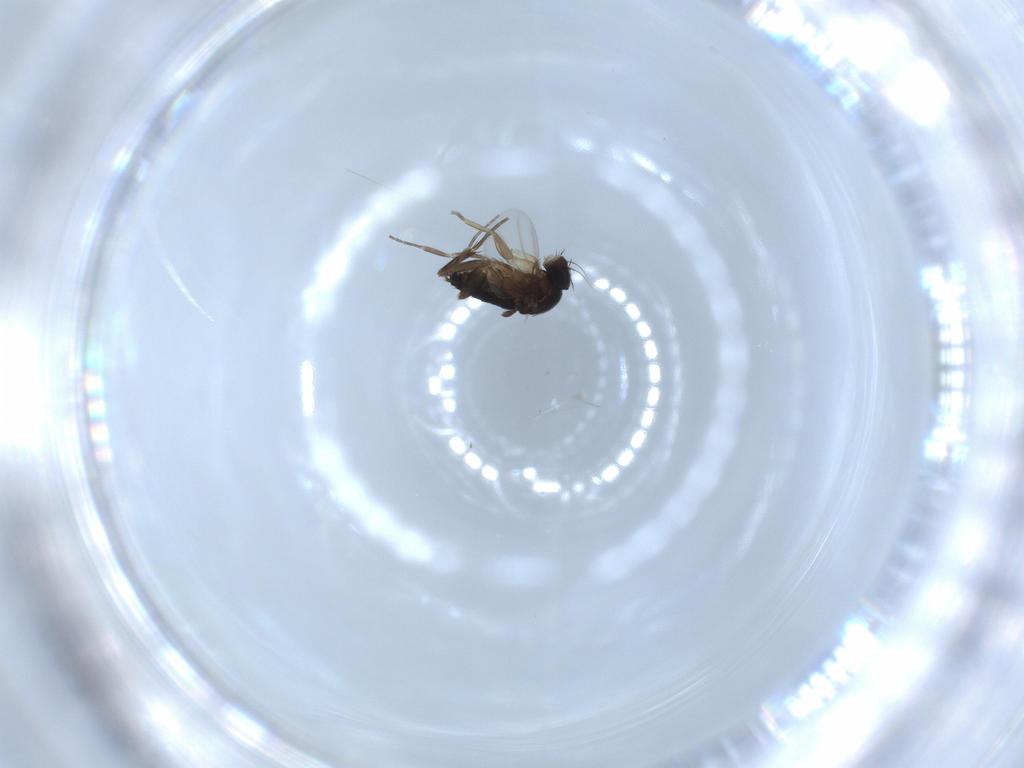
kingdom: Animalia
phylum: Arthropoda
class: Insecta
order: Diptera
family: Phoridae
